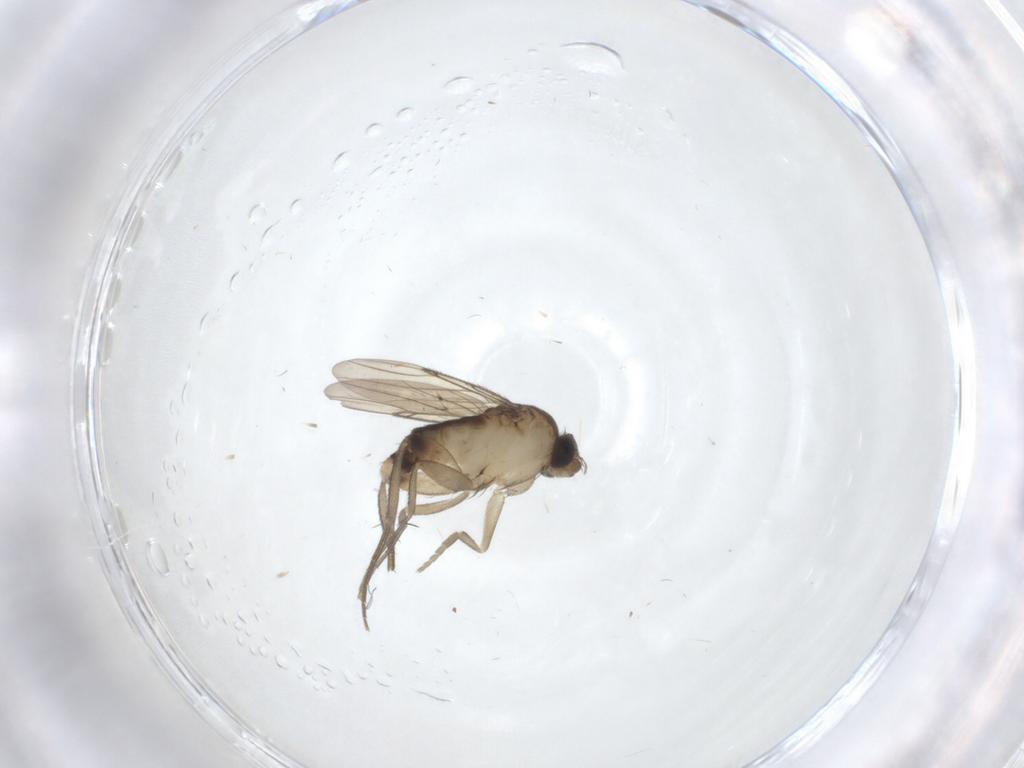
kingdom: Animalia
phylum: Arthropoda
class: Insecta
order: Diptera
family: Phoridae
